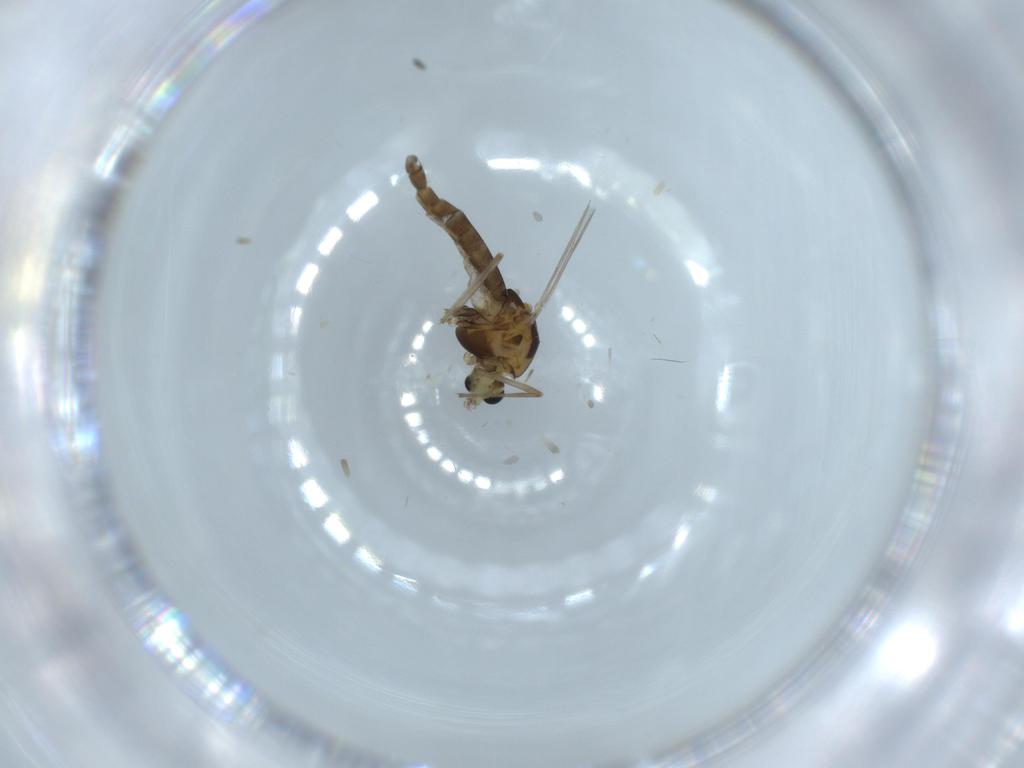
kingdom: Animalia
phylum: Arthropoda
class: Insecta
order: Diptera
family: Chironomidae
